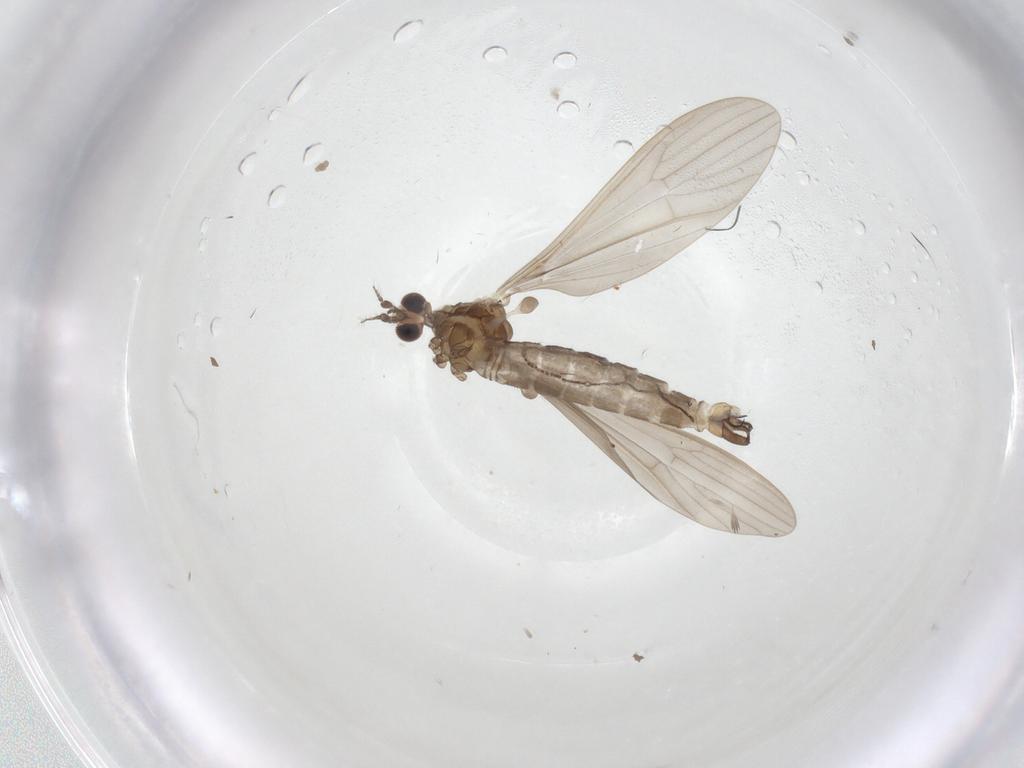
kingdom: Animalia
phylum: Arthropoda
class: Insecta
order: Diptera
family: Limoniidae
